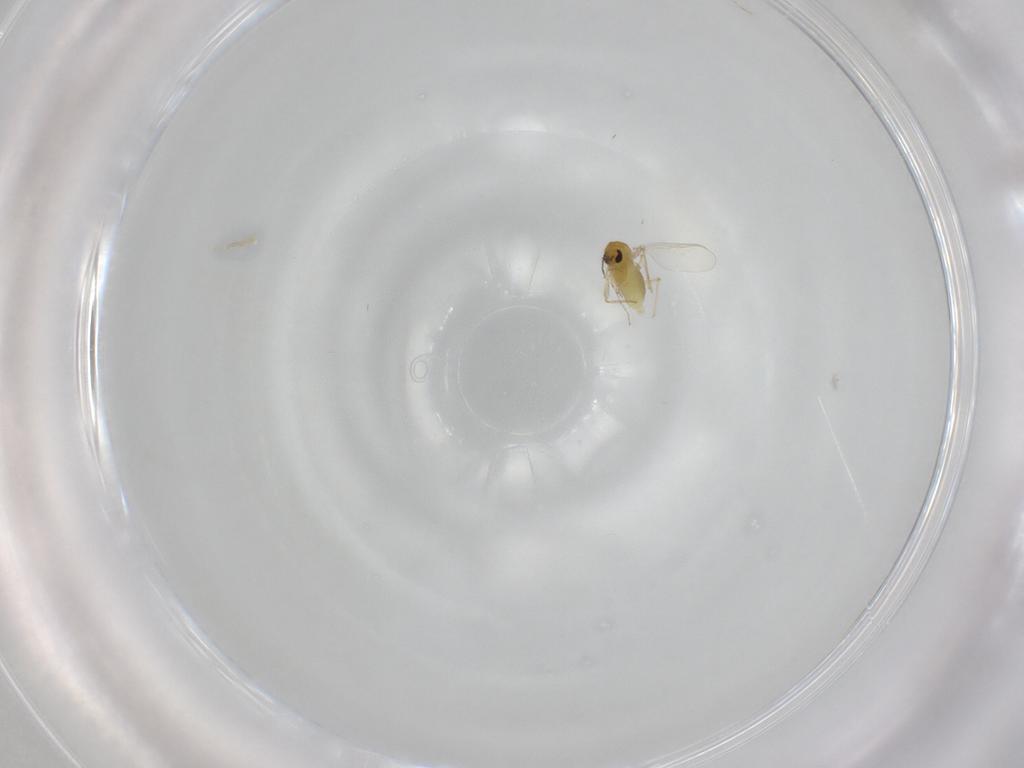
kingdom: Animalia
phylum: Arthropoda
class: Insecta
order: Diptera
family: Chironomidae
